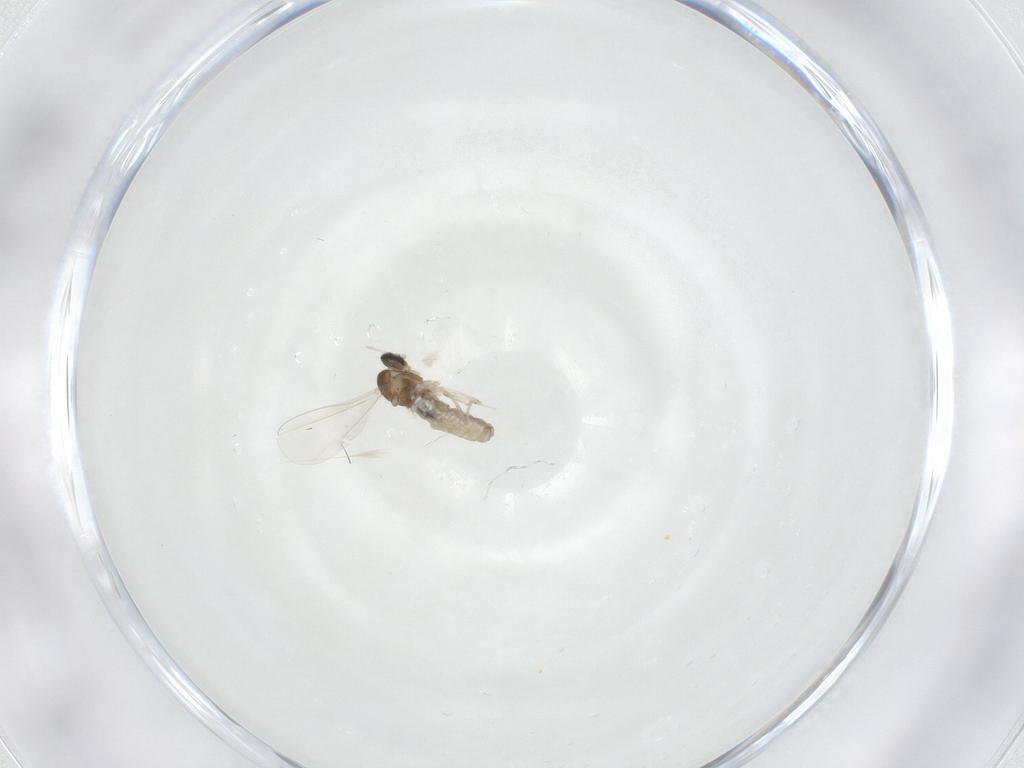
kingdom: Animalia
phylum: Arthropoda
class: Insecta
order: Diptera
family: Cecidomyiidae
